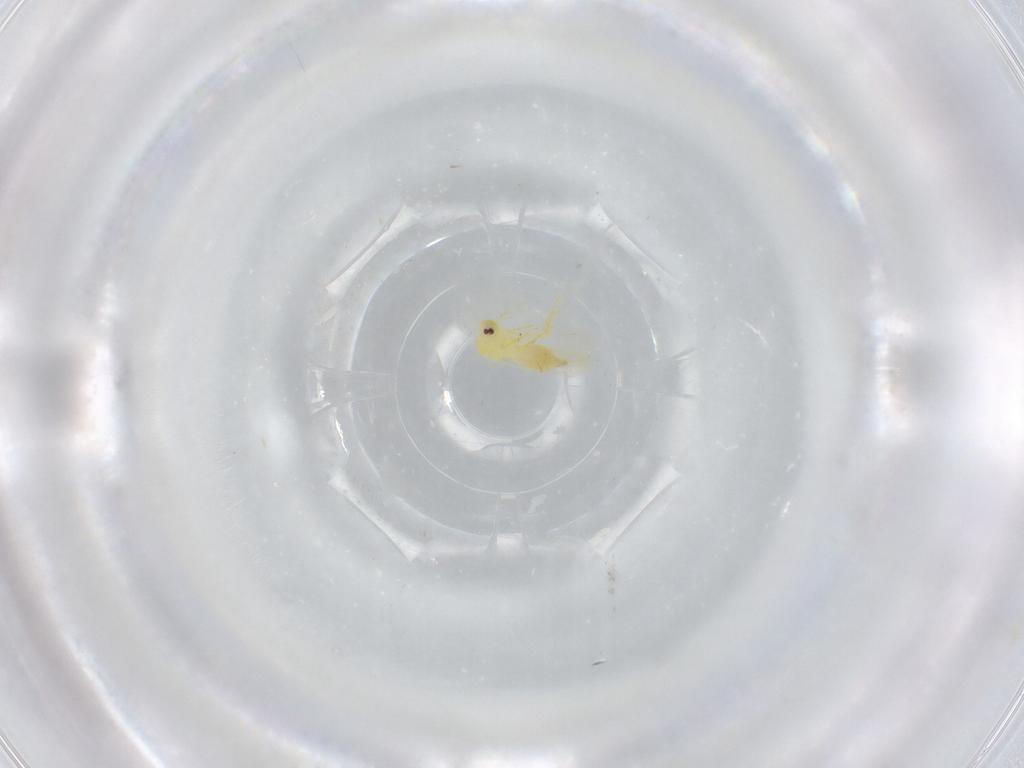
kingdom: Animalia
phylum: Arthropoda
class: Insecta
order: Hemiptera
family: Aleyrodidae
